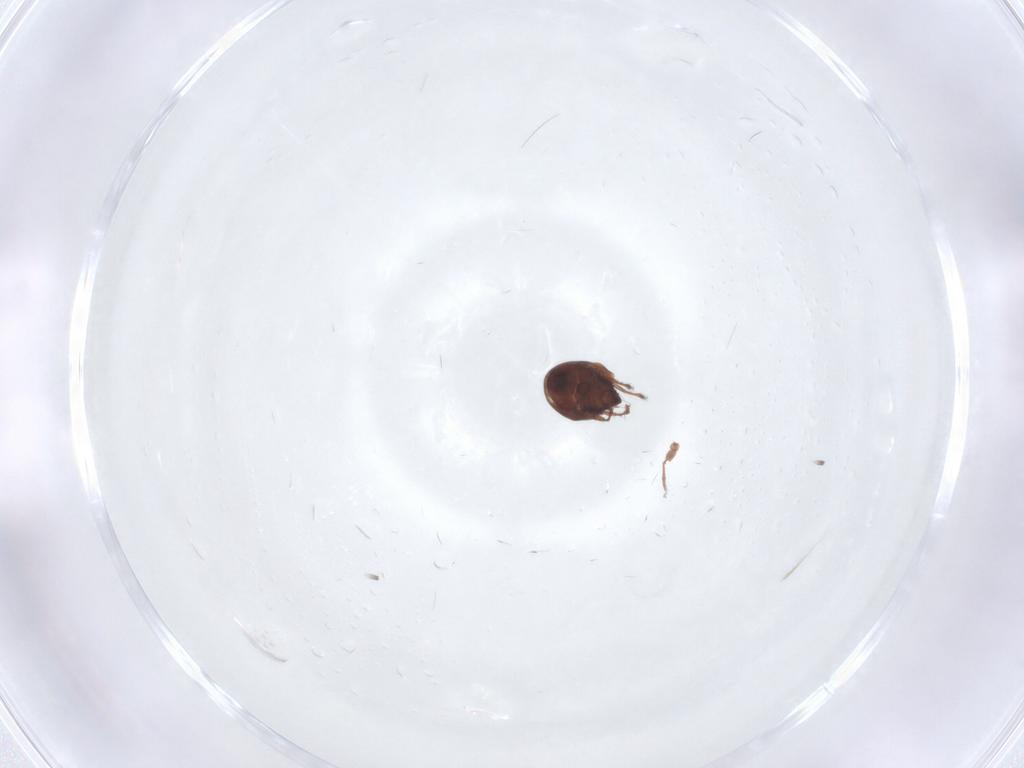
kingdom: Animalia
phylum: Arthropoda
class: Arachnida
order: Sarcoptiformes
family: Ceratozetidae
